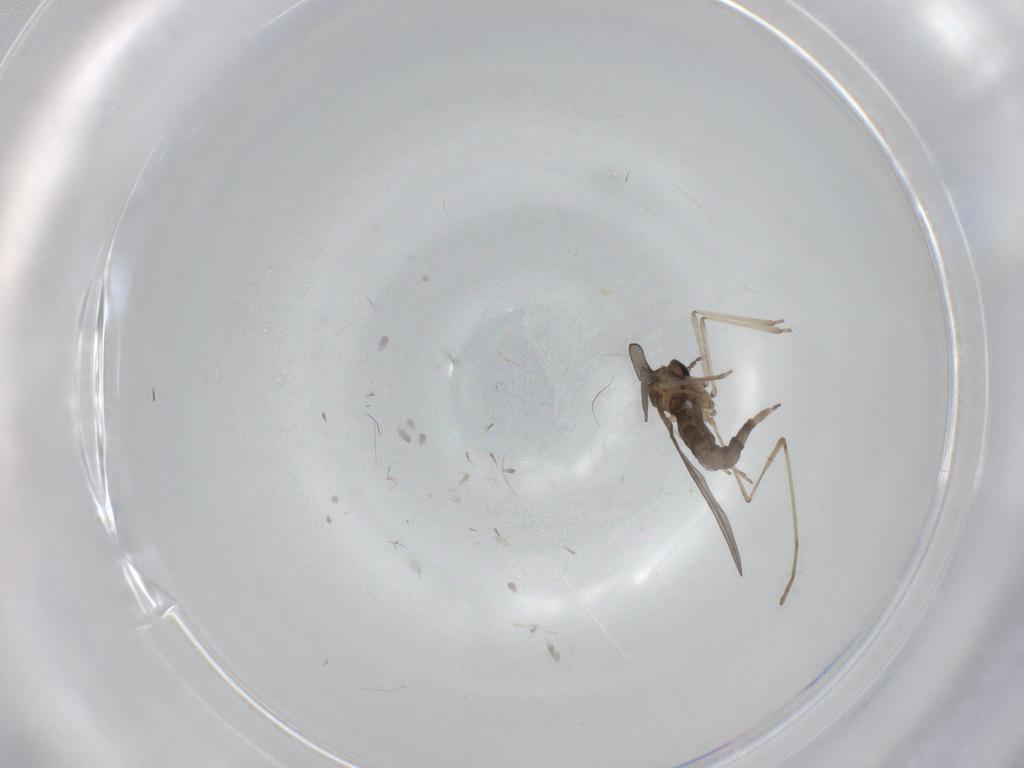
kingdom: Animalia
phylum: Arthropoda
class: Insecta
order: Diptera
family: Cecidomyiidae
